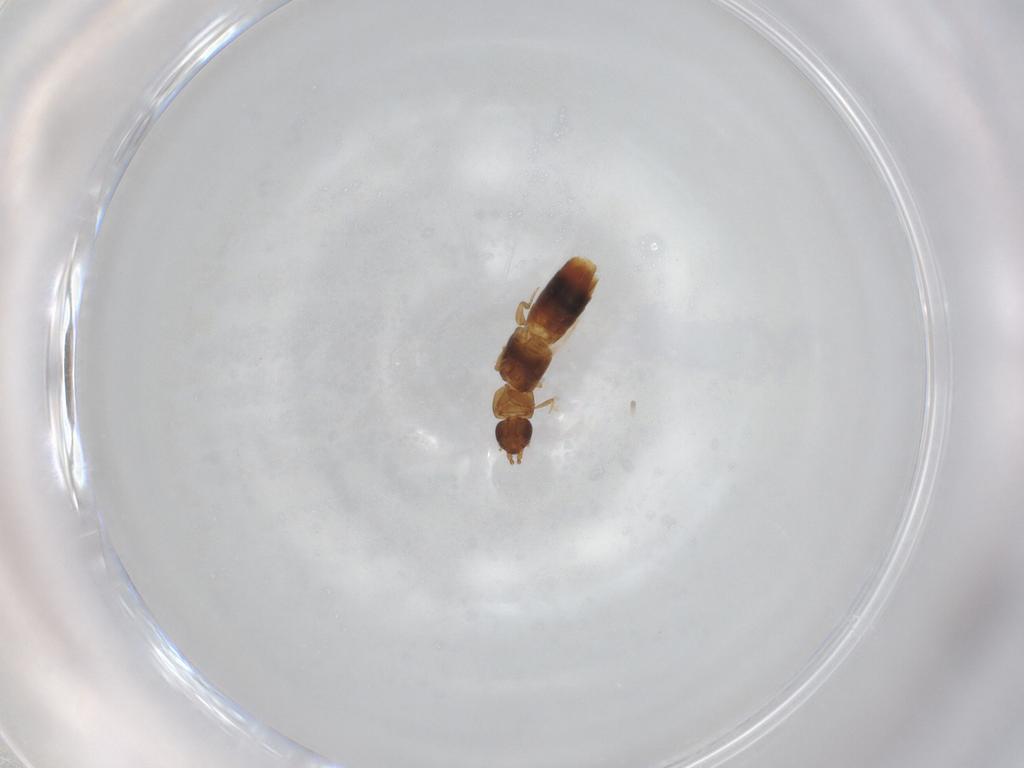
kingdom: Animalia
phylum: Arthropoda
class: Insecta
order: Coleoptera
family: Staphylinidae
